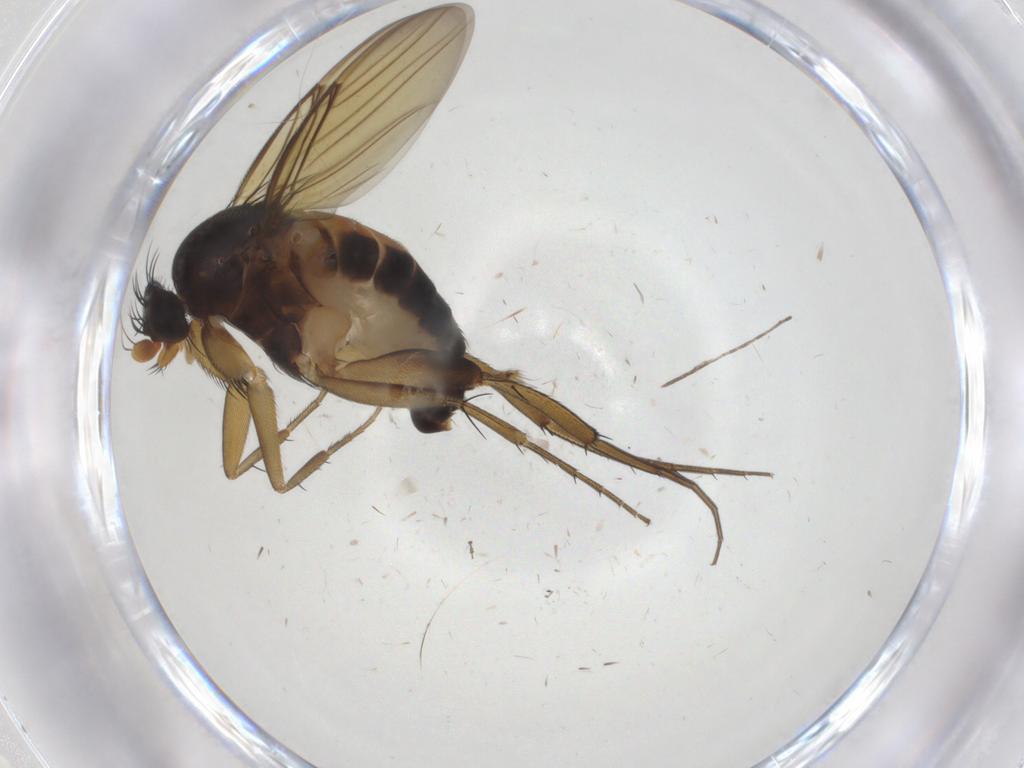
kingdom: Animalia
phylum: Arthropoda
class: Insecta
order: Diptera
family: Phoridae
